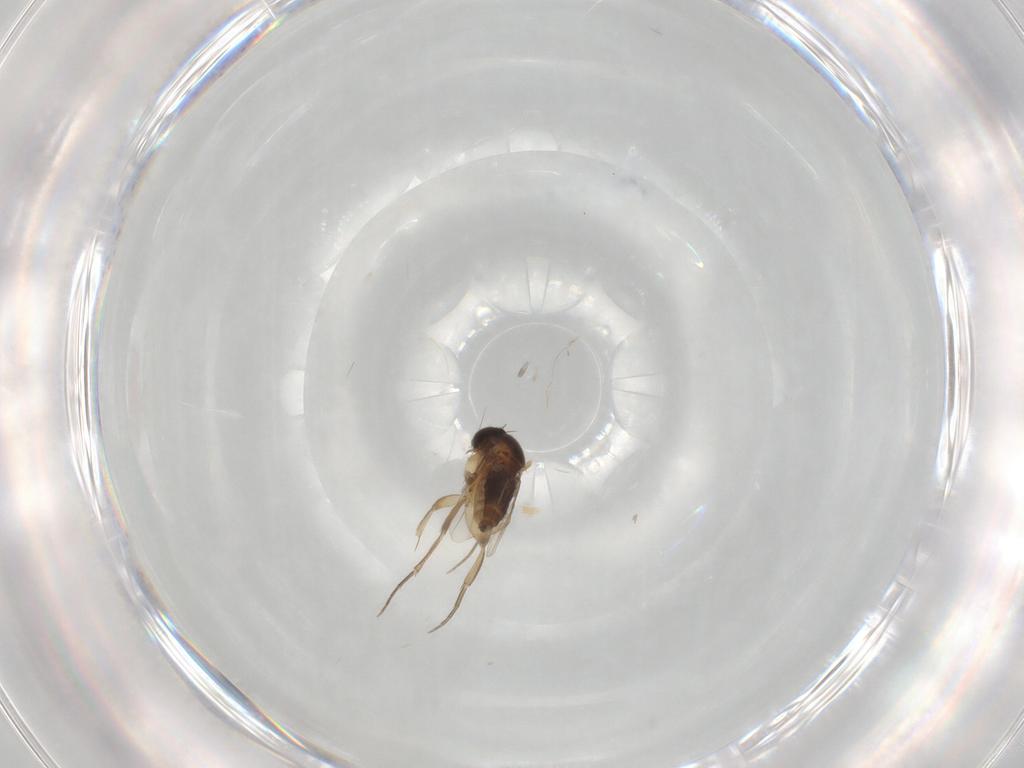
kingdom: Animalia
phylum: Arthropoda
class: Insecta
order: Diptera
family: Phoridae
